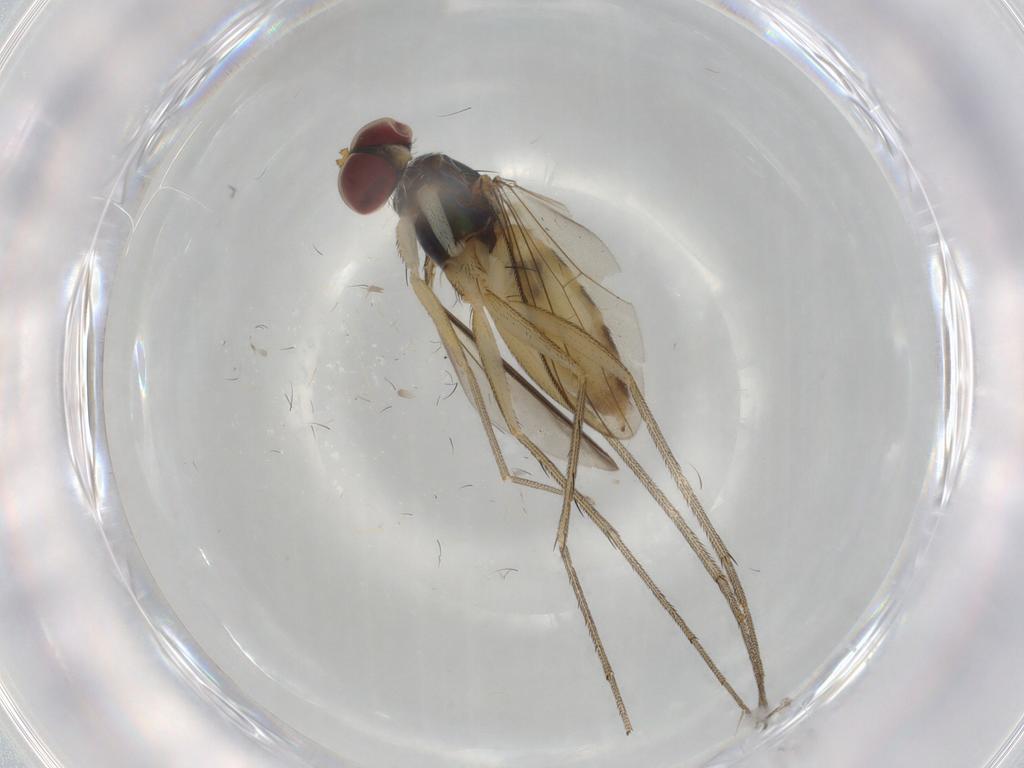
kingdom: Animalia
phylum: Arthropoda
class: Insecta
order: Diptera
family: Dolichopodidae
